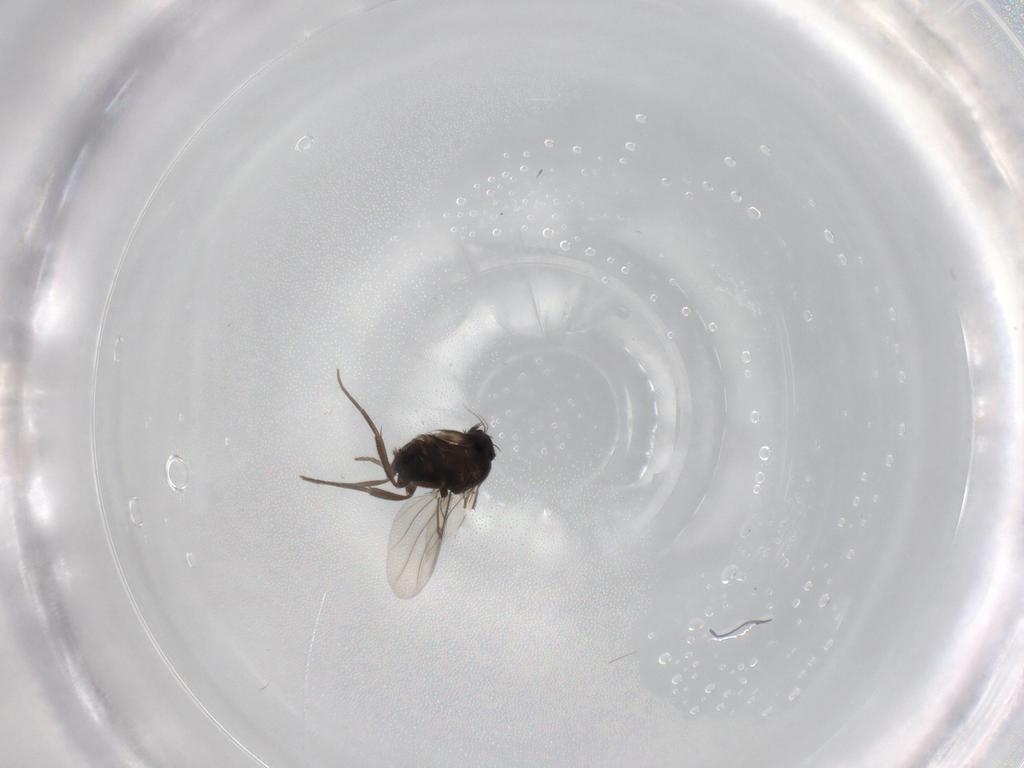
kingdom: Animalia
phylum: Arthropoda
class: Insecta
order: Diptera
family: Phoridae
